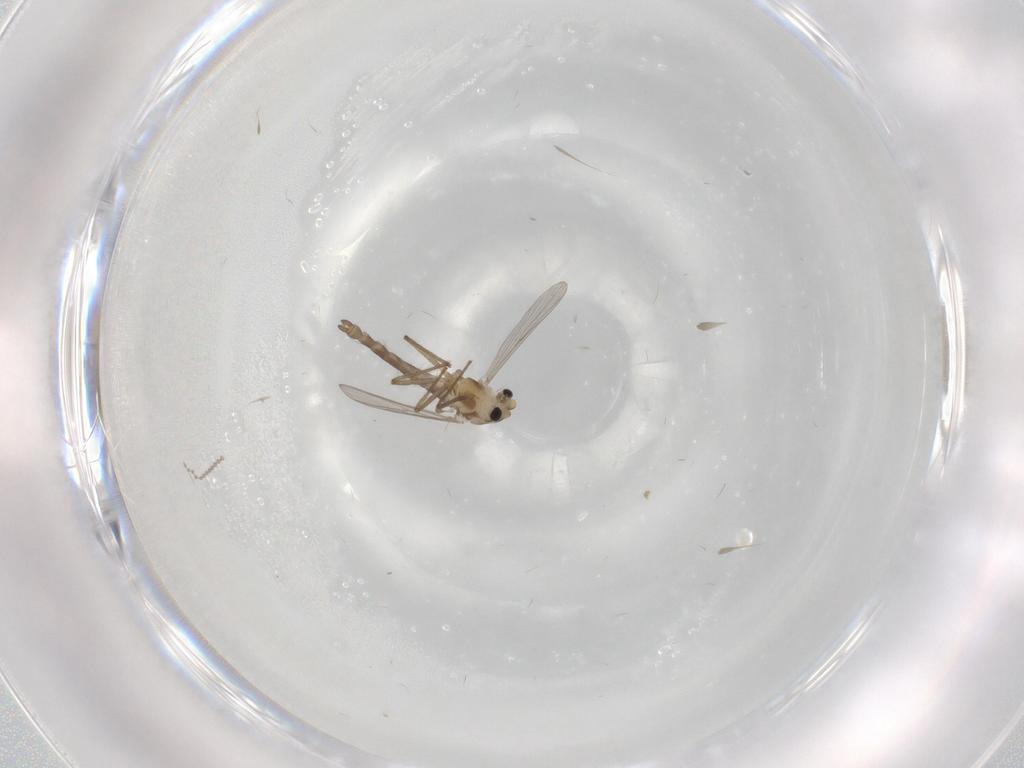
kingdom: Animalia
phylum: Arthropoda
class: Insecta
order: Diptera
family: Chironomidae
